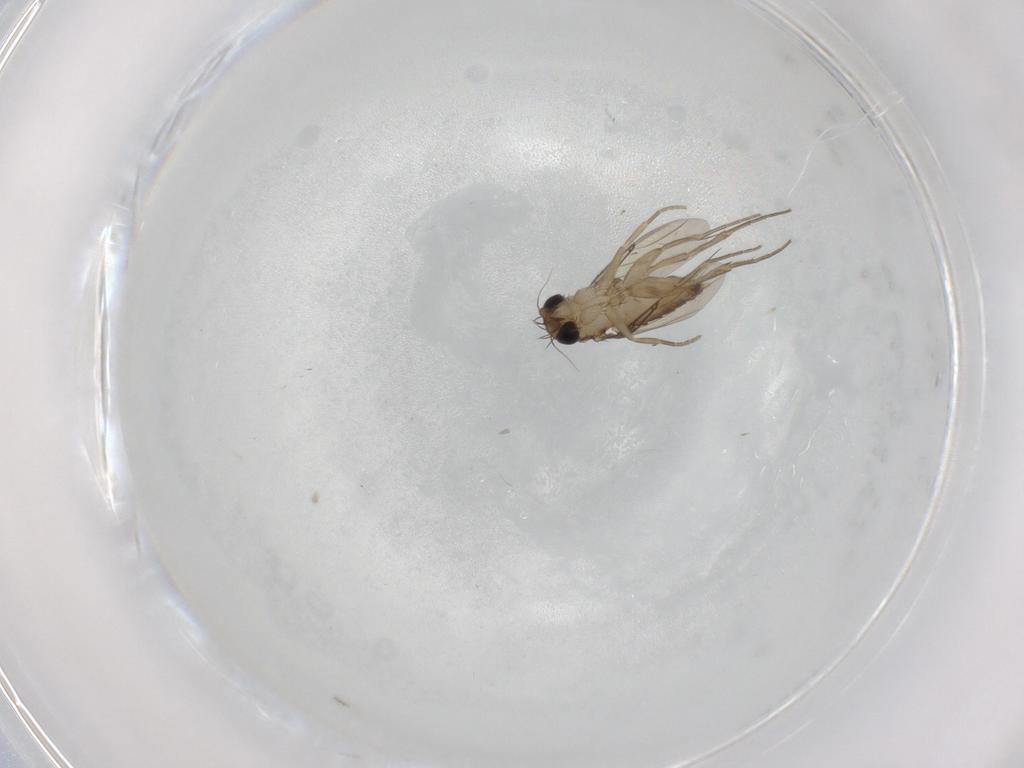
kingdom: Animalia
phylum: Arthropoda
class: Insecta
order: Diptera
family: Phoridae
